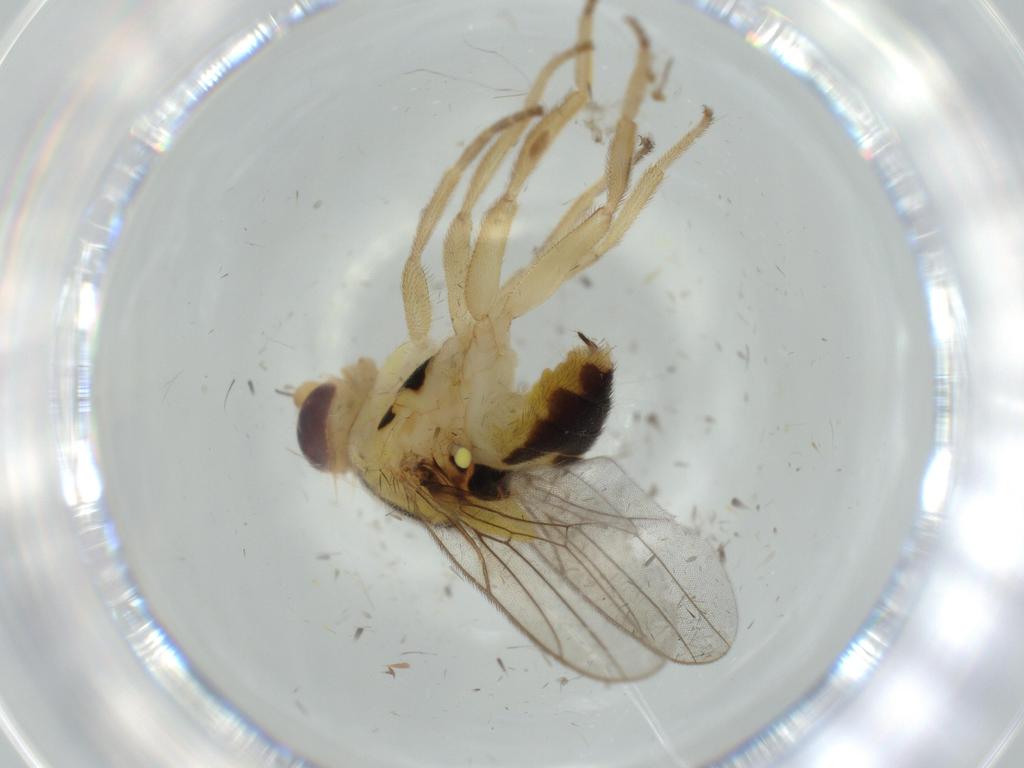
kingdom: Animalia
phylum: Arthropoda
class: Insecta
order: Diptera
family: Chloropidae
